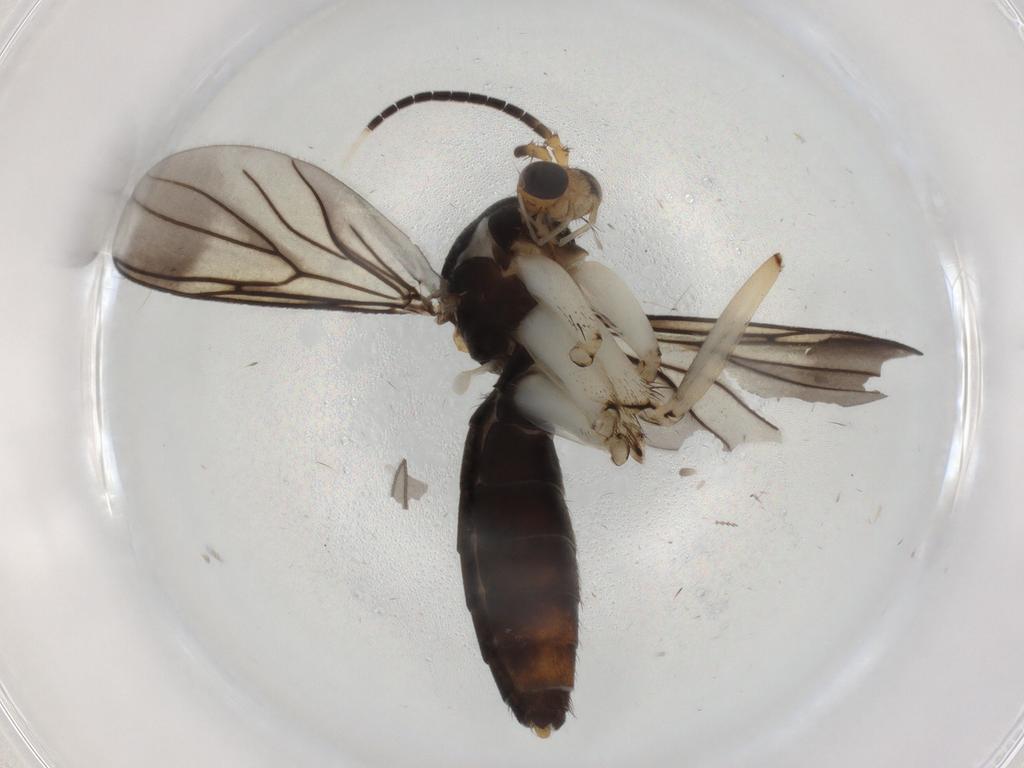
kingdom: Animalia
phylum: Arthropoda
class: Insecta
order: Diptera
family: Mycetophilidae
